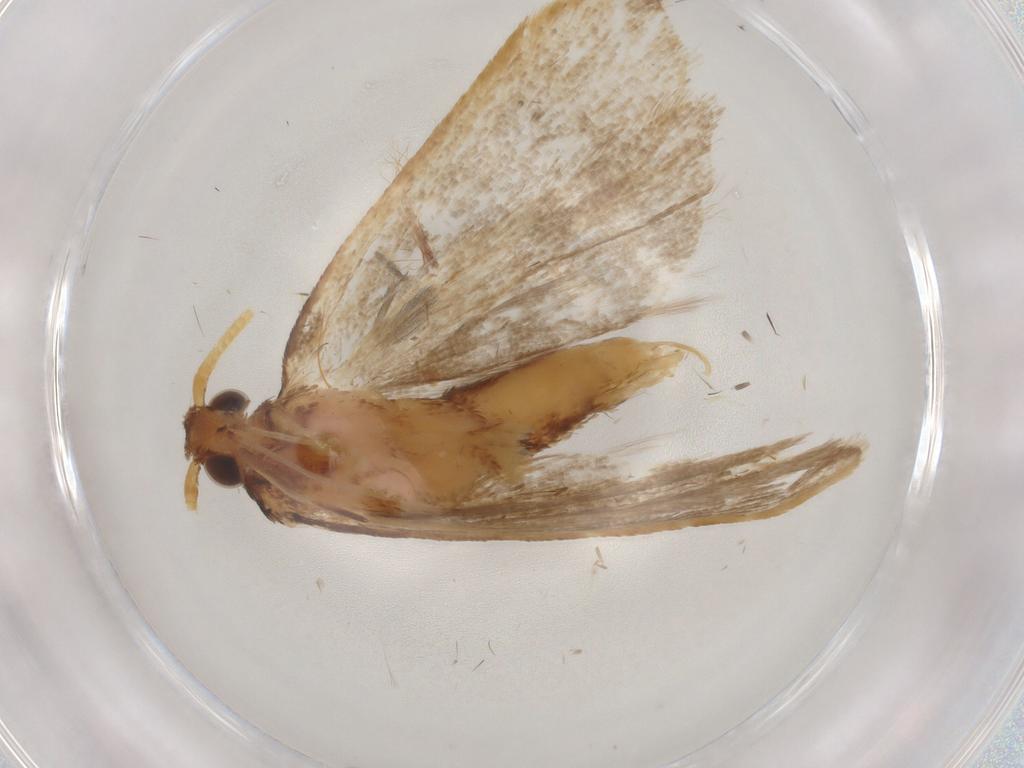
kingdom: Animalia
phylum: Arthropoda
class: Insecta
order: Lepidoptera
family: Lecithoceridae
